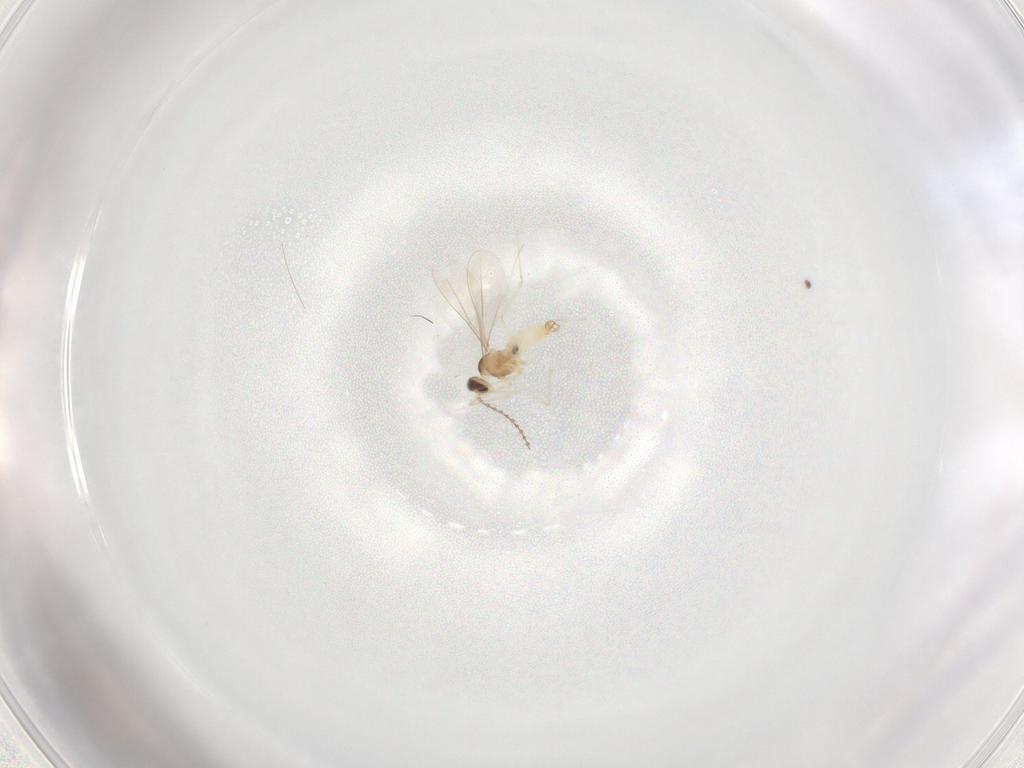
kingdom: Animalia
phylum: Arthropoda
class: Insecta
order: Diptera
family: Cecidomyiidae
